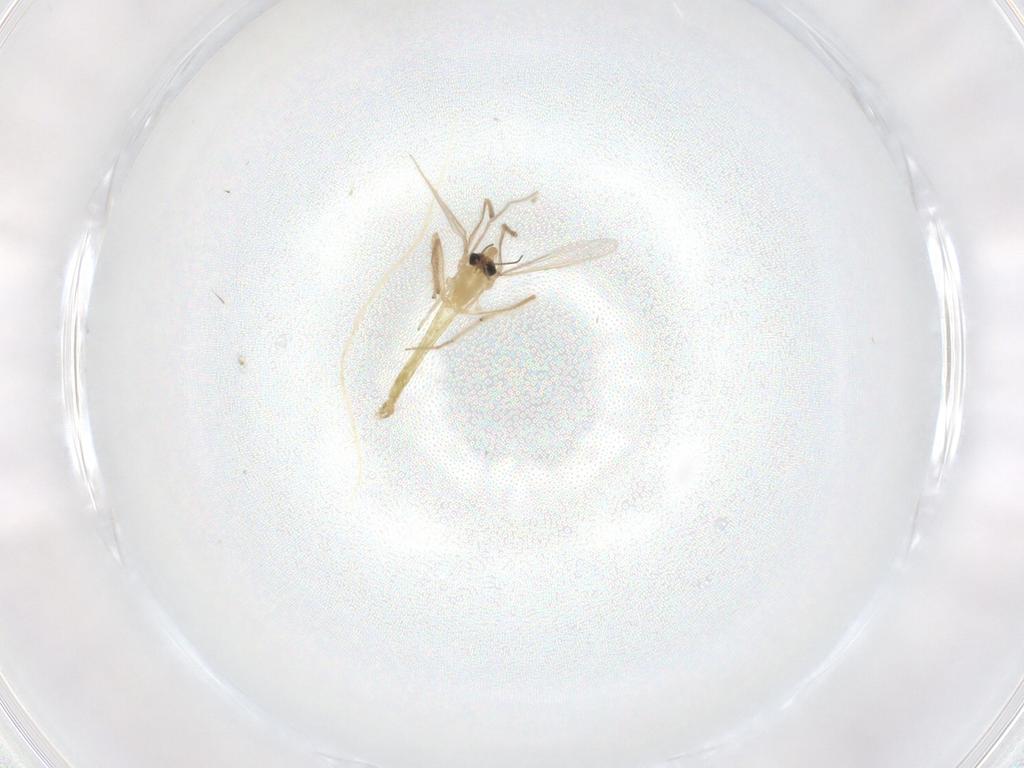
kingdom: Animalia
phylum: Arthropoda
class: Insecta
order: Diptera
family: Chironomidae
